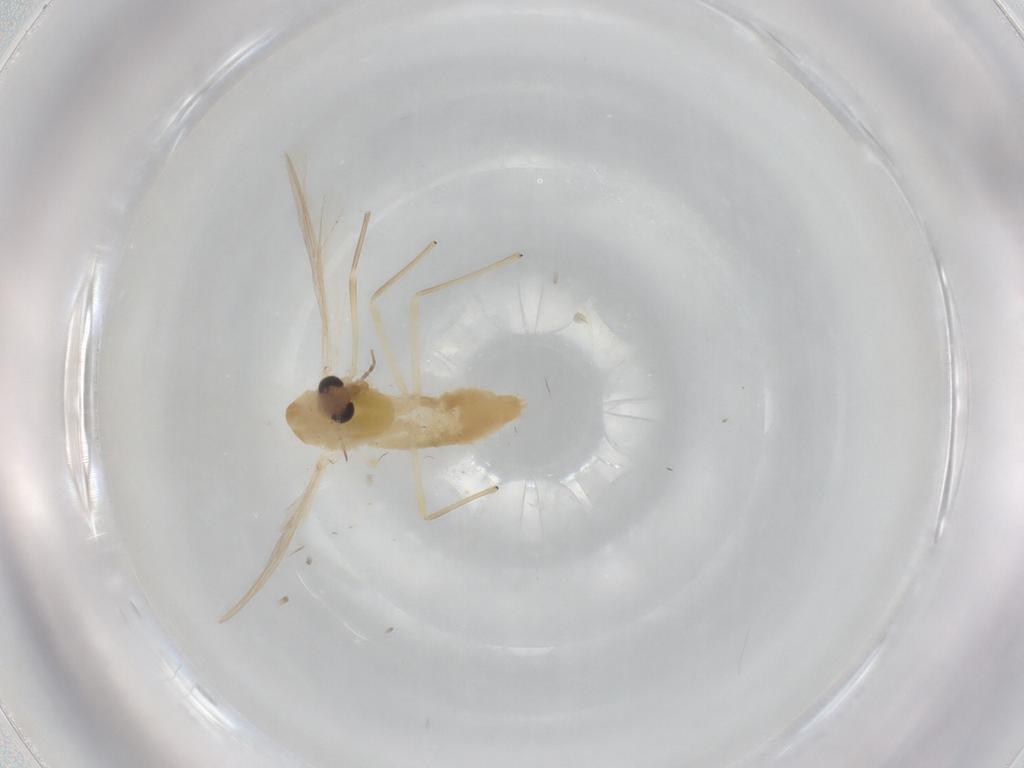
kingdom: Animalia
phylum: Arthropoda
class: Insecta
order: Diptera
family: Chironomidae
